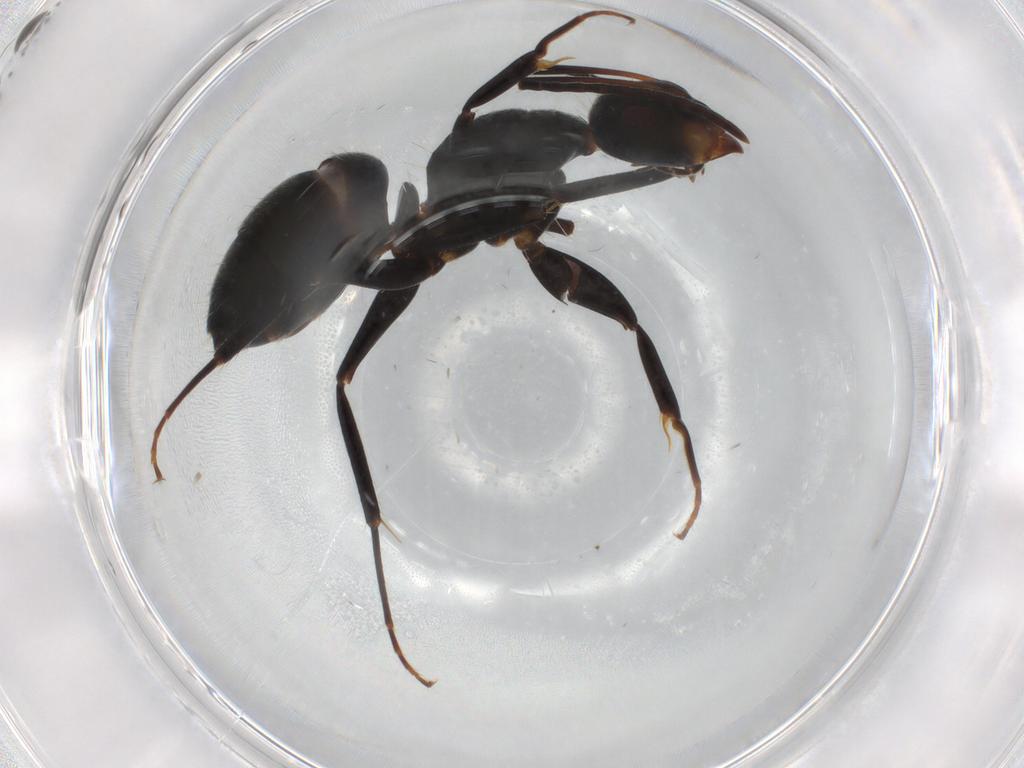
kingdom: Animalia
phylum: Arthropoda
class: Insecta
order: Hymenoptera
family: Formicidae
